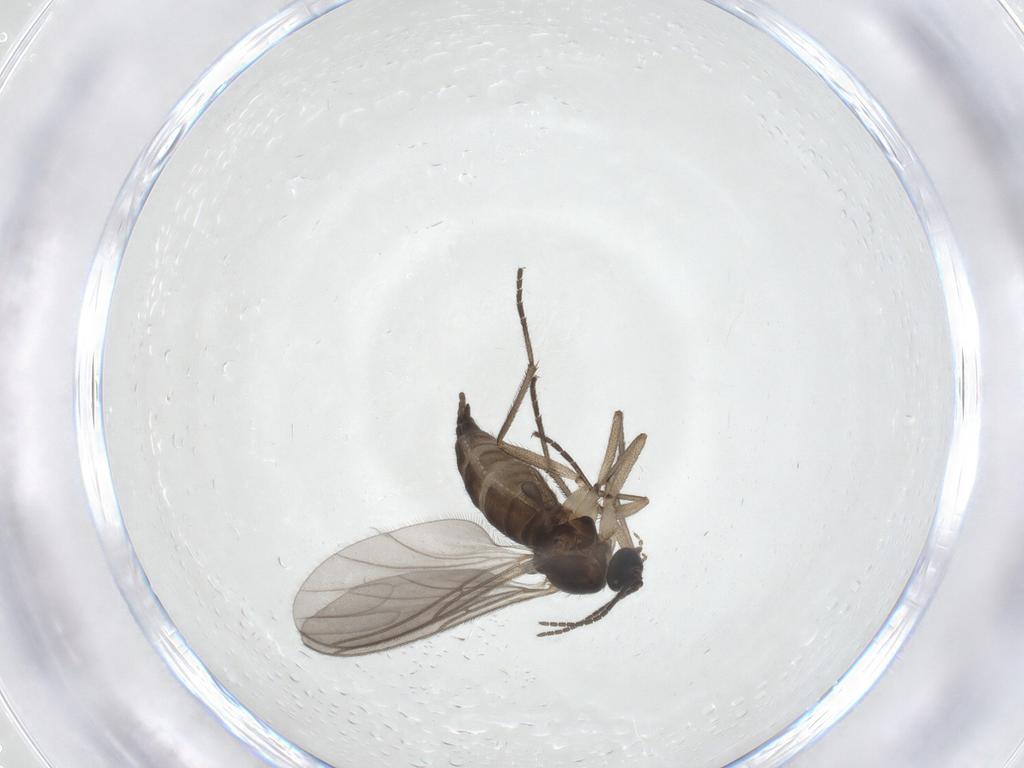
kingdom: Animalia
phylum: Arthropoda
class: Insecta
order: Diptera
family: Sciaridae
